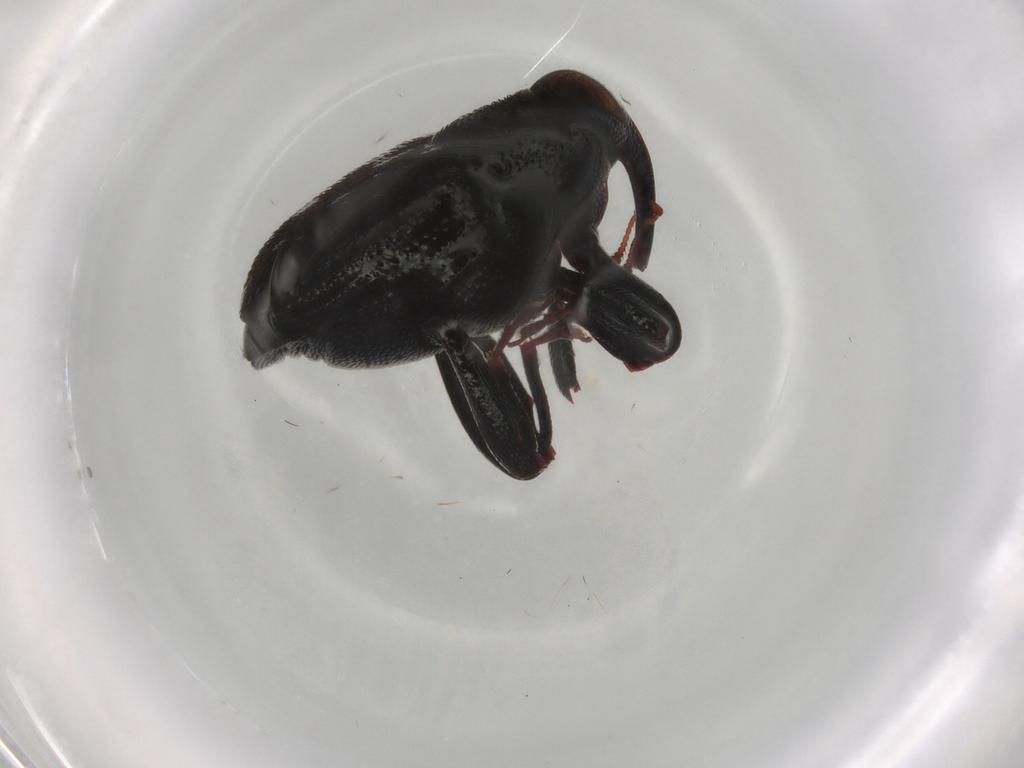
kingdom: Animalia
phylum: Arthropoda
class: Insecta
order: Coleoptera
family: Curculionidae
